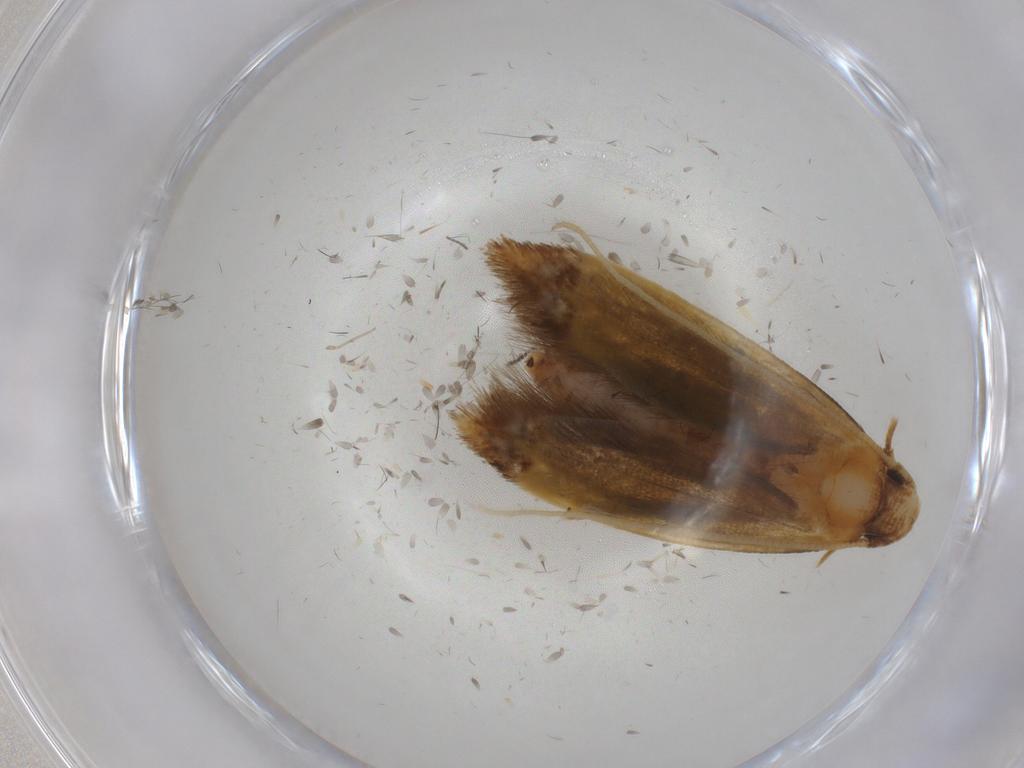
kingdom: Animalia
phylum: Arthropoda
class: Insecta
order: Lepidoptera
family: Tineidae
